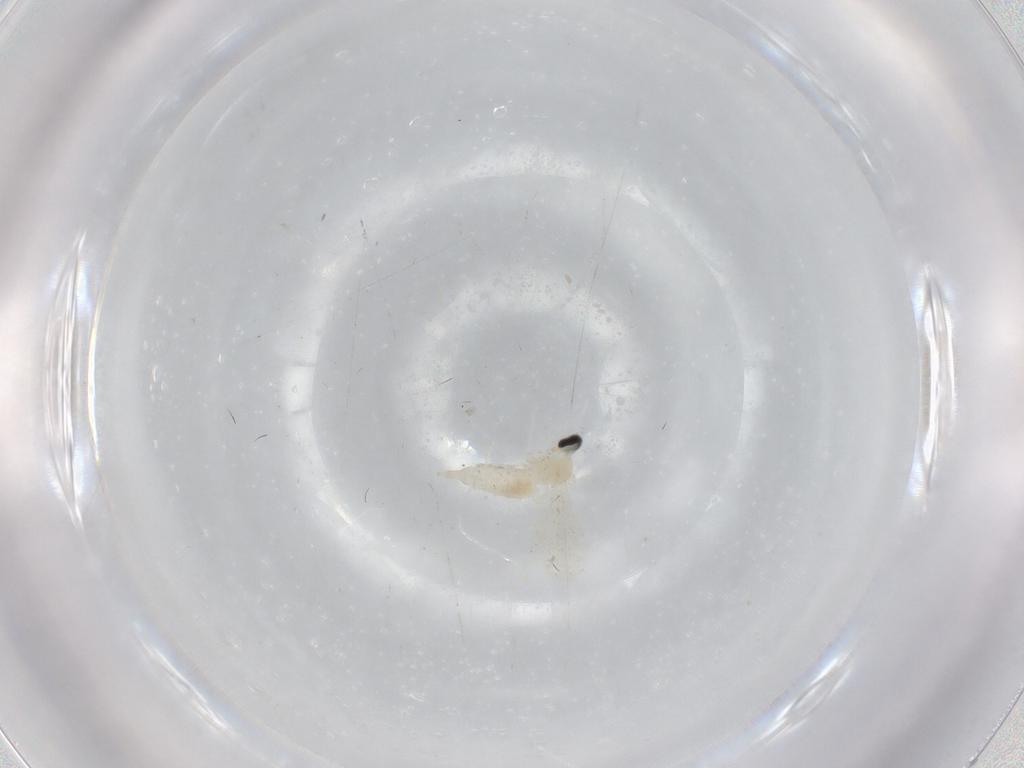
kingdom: Animalia
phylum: Arthropoda
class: Insecta
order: Diptera
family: Cecidomyiidae
